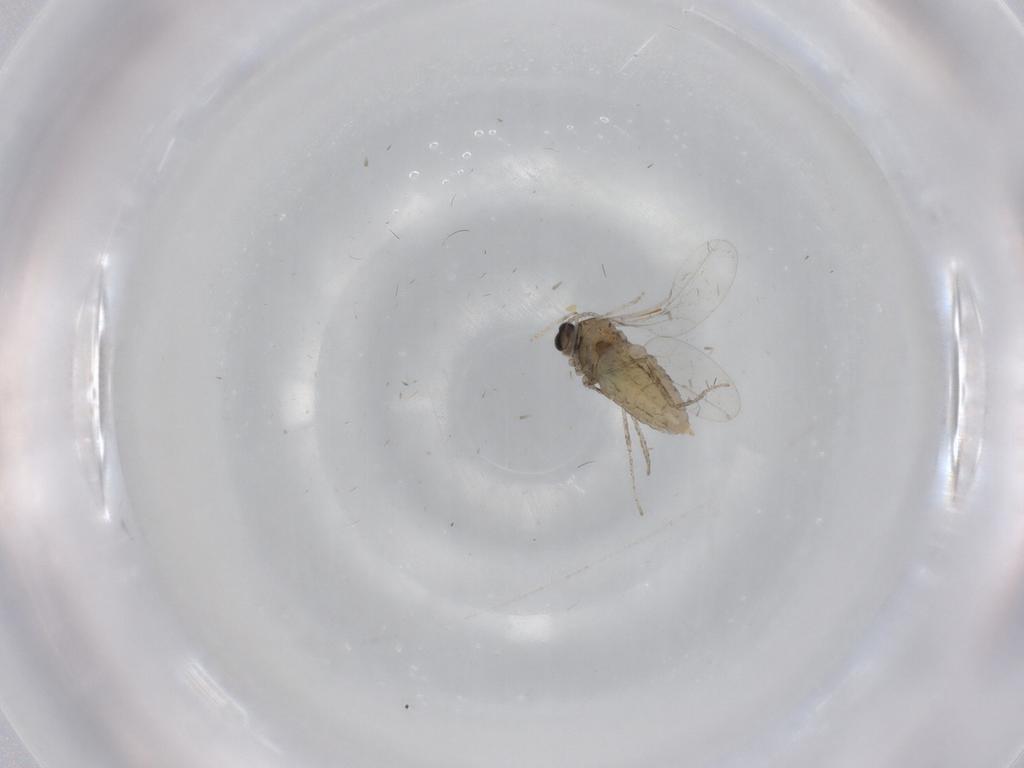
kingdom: Animalia
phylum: Arthropoda
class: Insecta
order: Diptera
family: Cecidomyiidae
